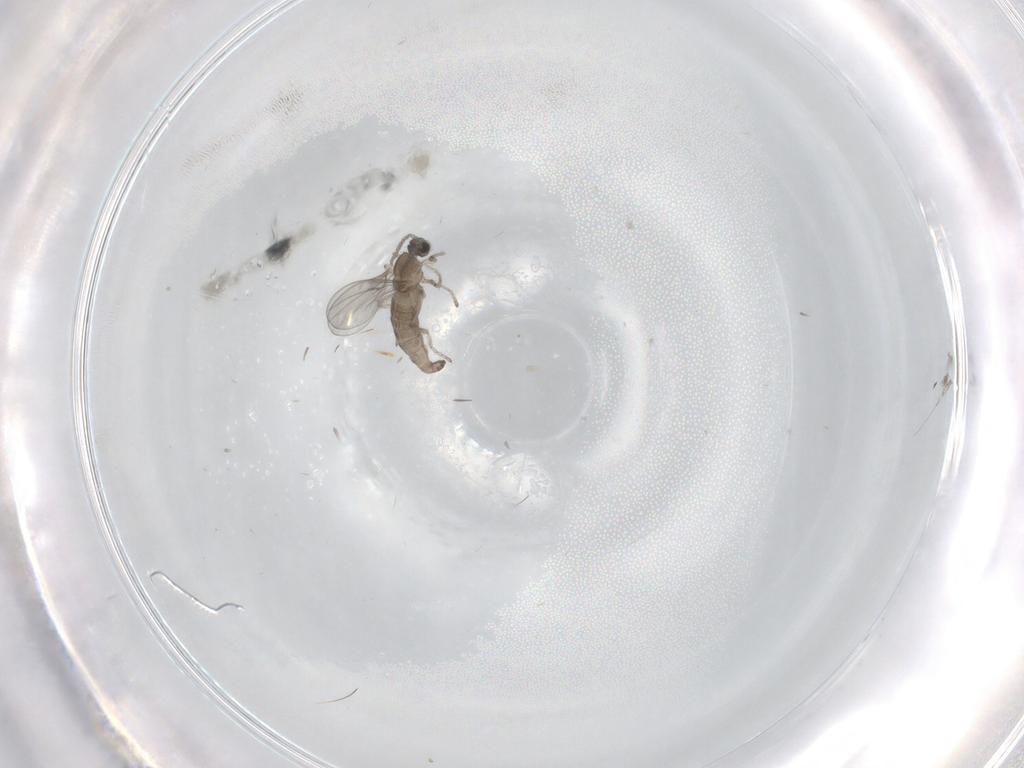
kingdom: Animalia
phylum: Arthropoda
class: Insecta
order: Diptera
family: Cecidomyiidae
